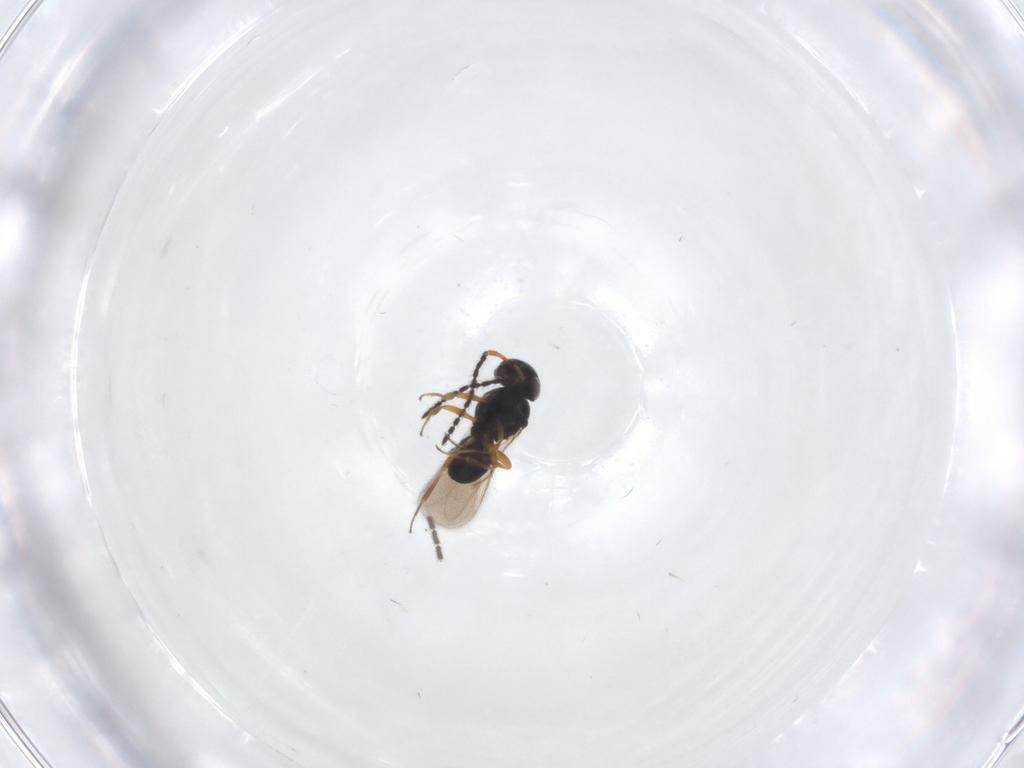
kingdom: Animalia
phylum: Arthropoda
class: Insecta
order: Hymenoptera
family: Scelionidae
